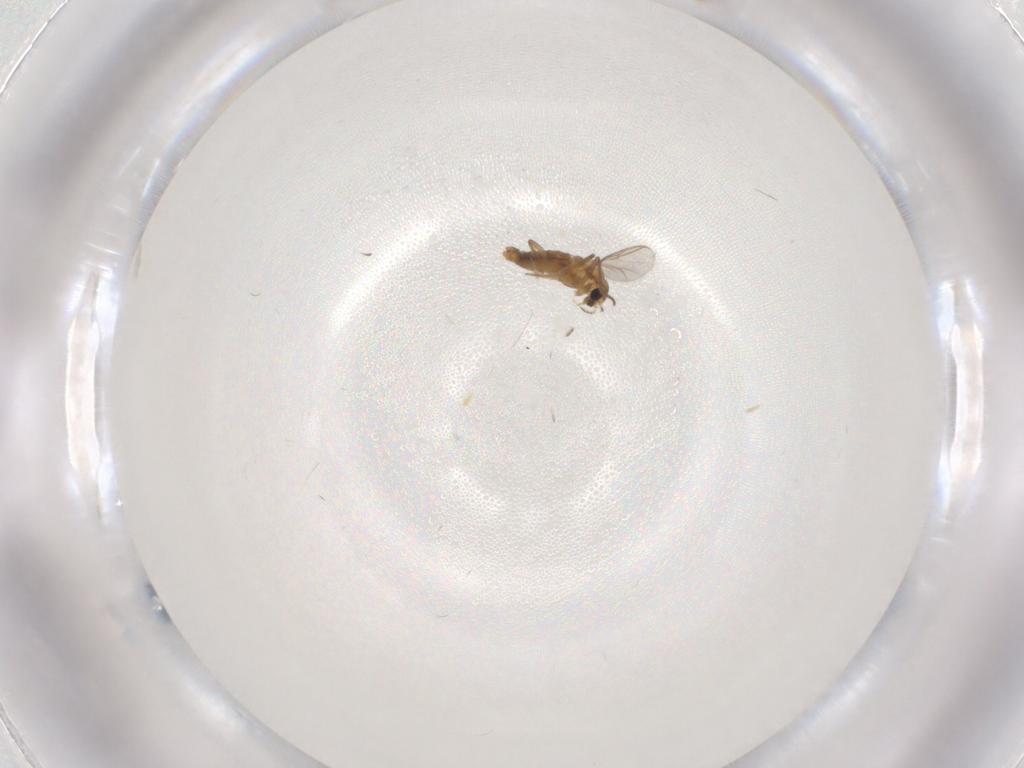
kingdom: Animalia
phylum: Arthropoda
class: Insecta
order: Diptera
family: Chironomidae
